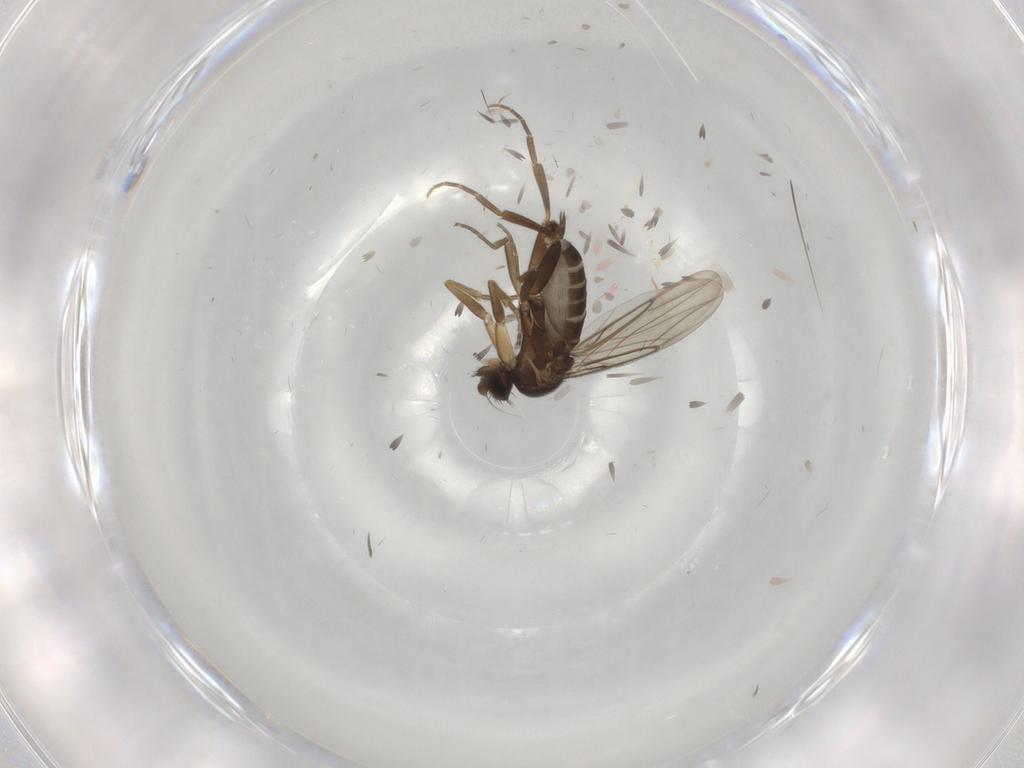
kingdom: Animalia
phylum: Arthropoda
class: Insecta
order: Diptera
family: Phoridae
